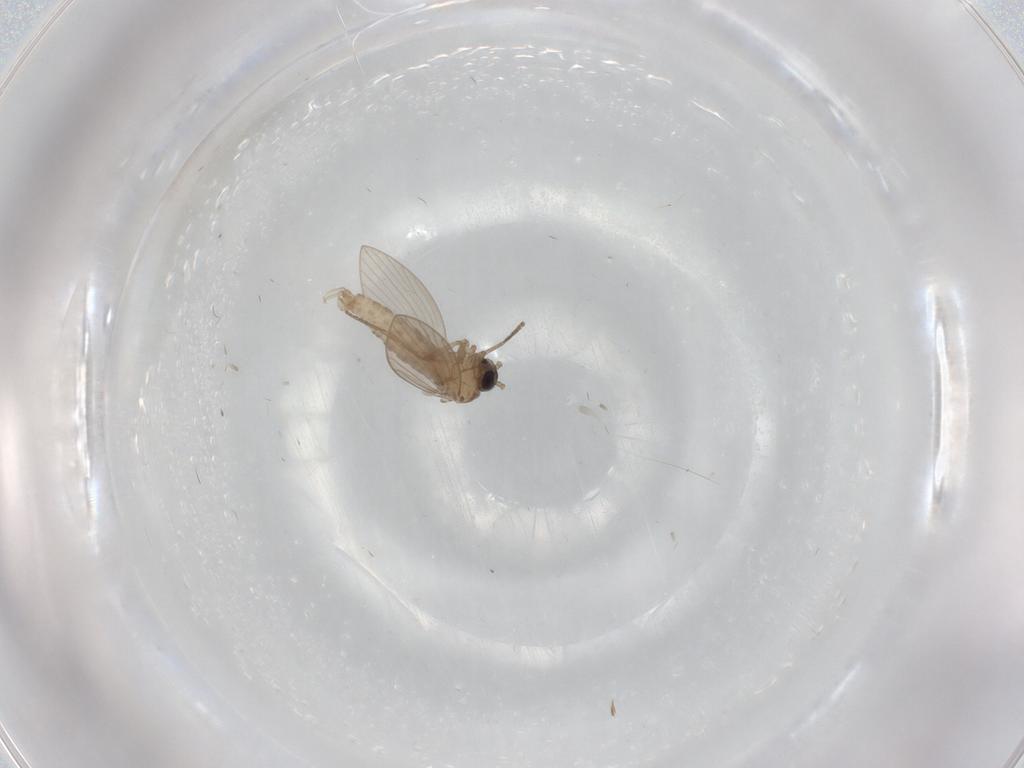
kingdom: Animalia
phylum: Arthropoda
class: Insecta
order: Diptera
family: Psychodidae
